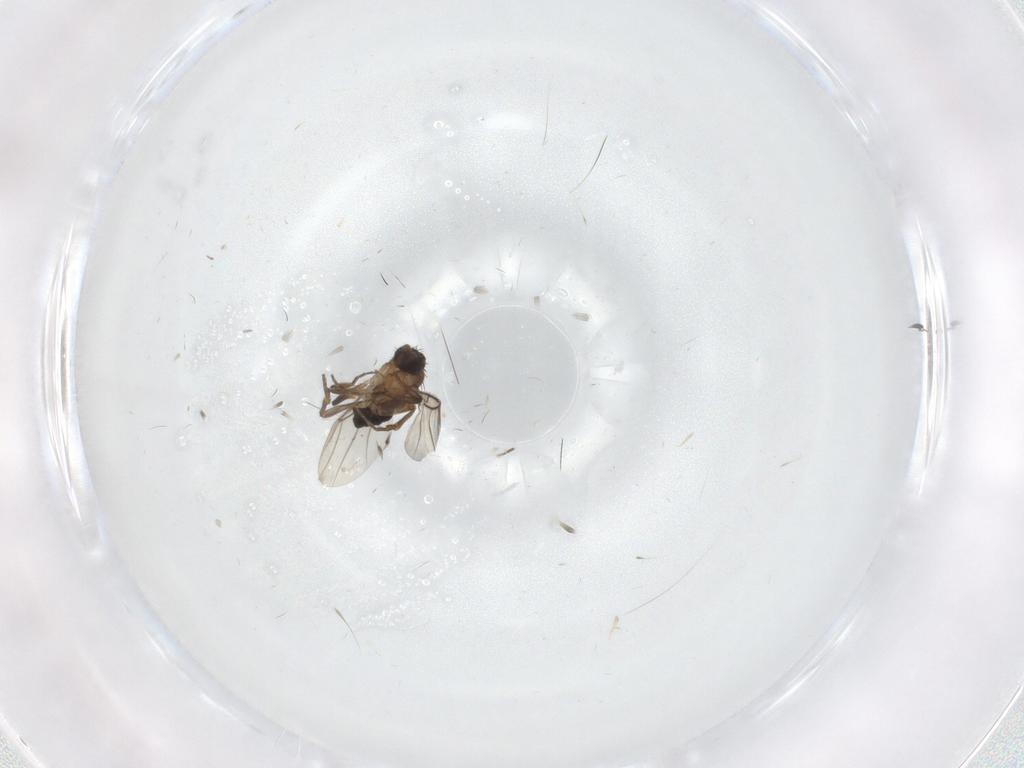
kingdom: Animalia
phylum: Arthropoda
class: Insecta
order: Diptera
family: Phoridae
